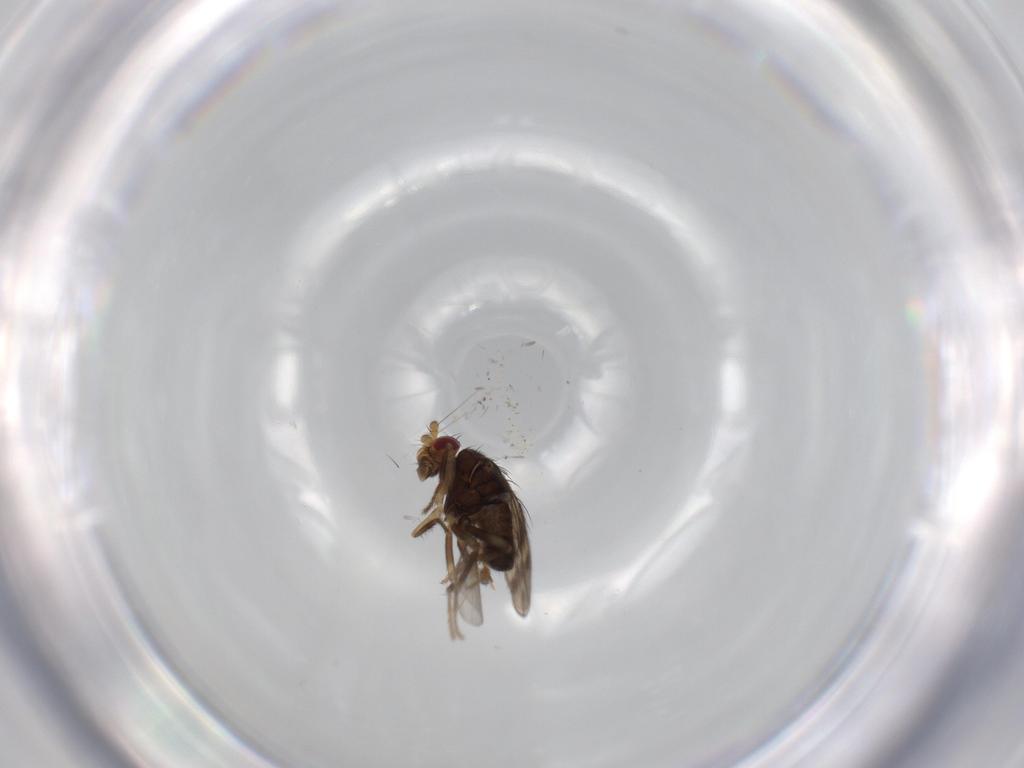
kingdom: Animalia
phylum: Arthropoda
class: Insecta
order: Diptera
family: Sphaeroceridae
